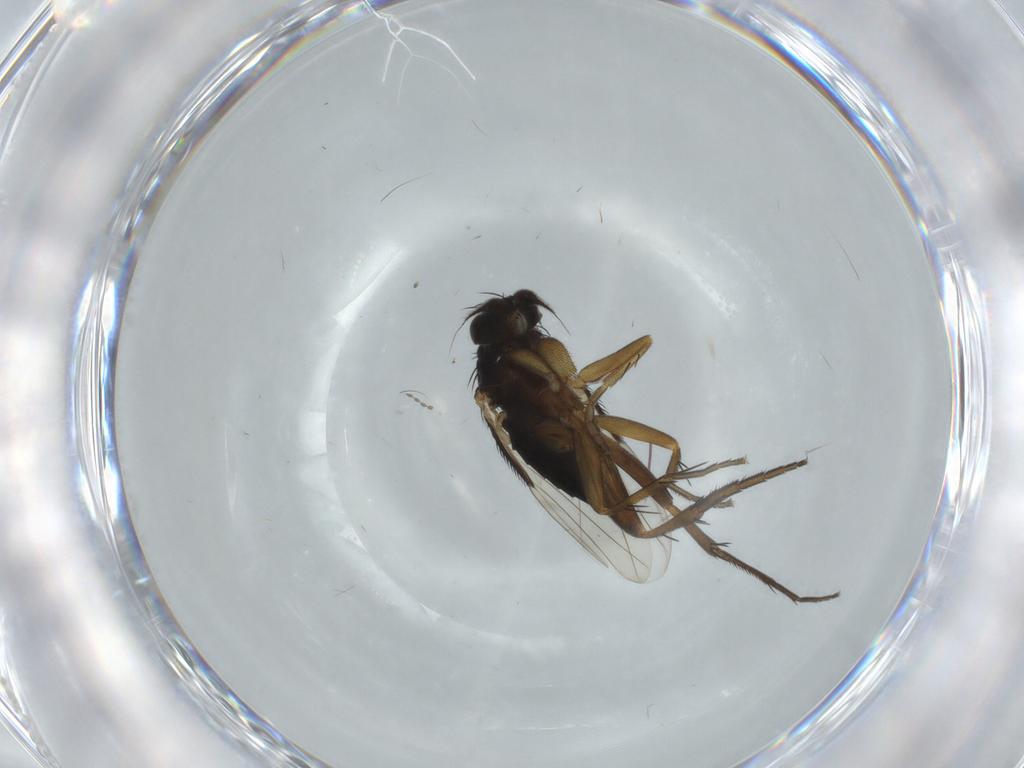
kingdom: Animalia
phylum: Arthropoda
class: Insecta
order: Diptera
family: Phoridae
